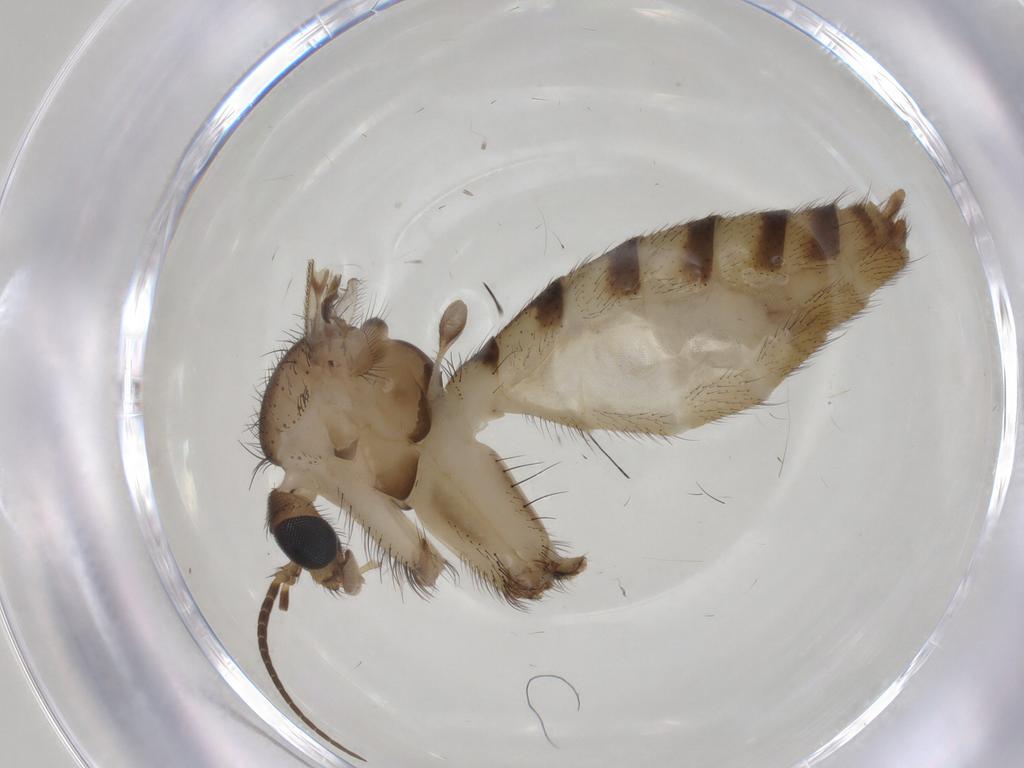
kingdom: Animalia
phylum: Arthropoda
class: Insecta
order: Diptera
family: Mycetophilidae
